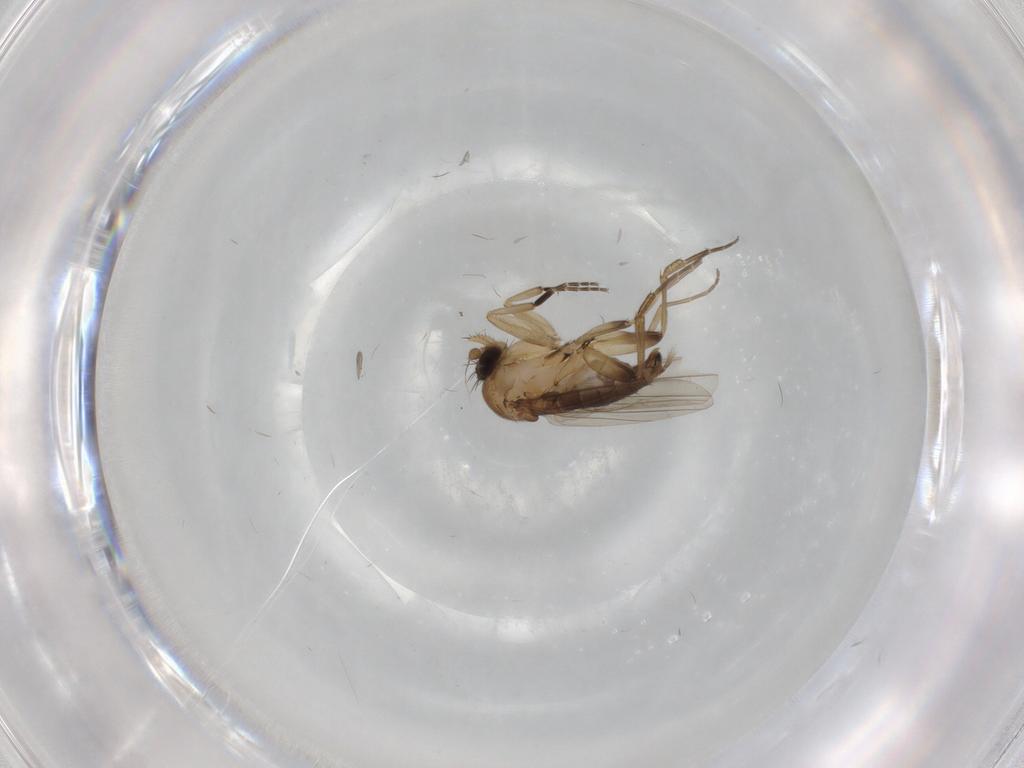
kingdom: Animalia
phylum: Arthropoda
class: Insecta
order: Diptera
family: Phoridae
